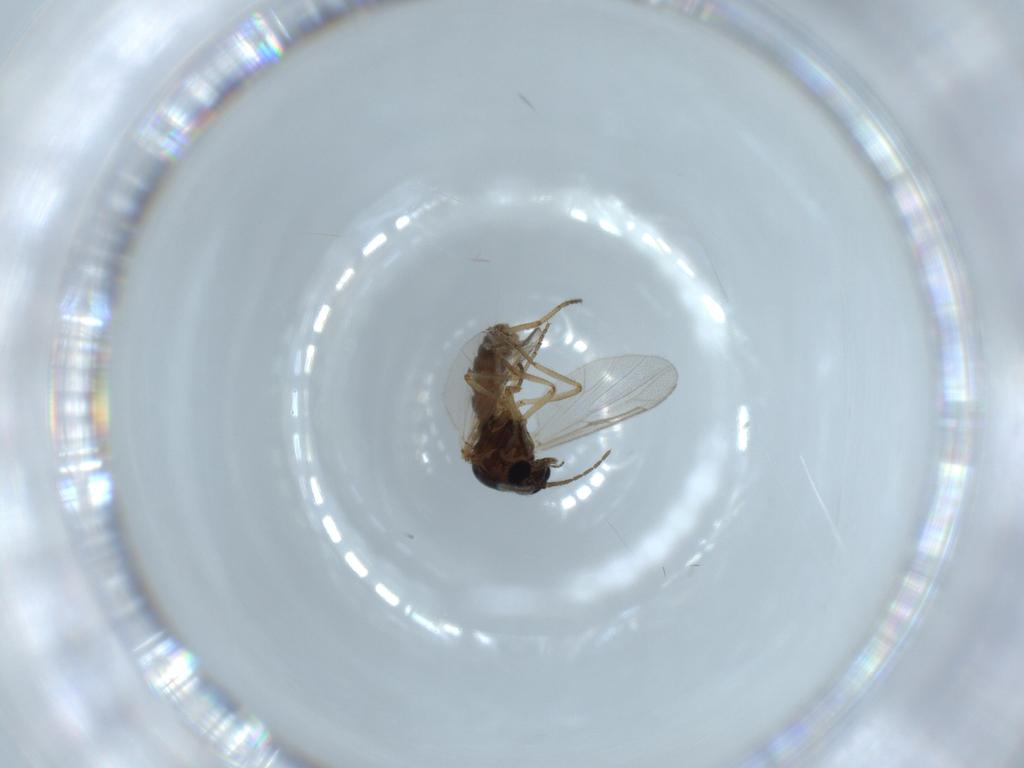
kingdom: Animalia
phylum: Arthropoda
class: Insecta
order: Diptera
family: Ceratopogonidae
